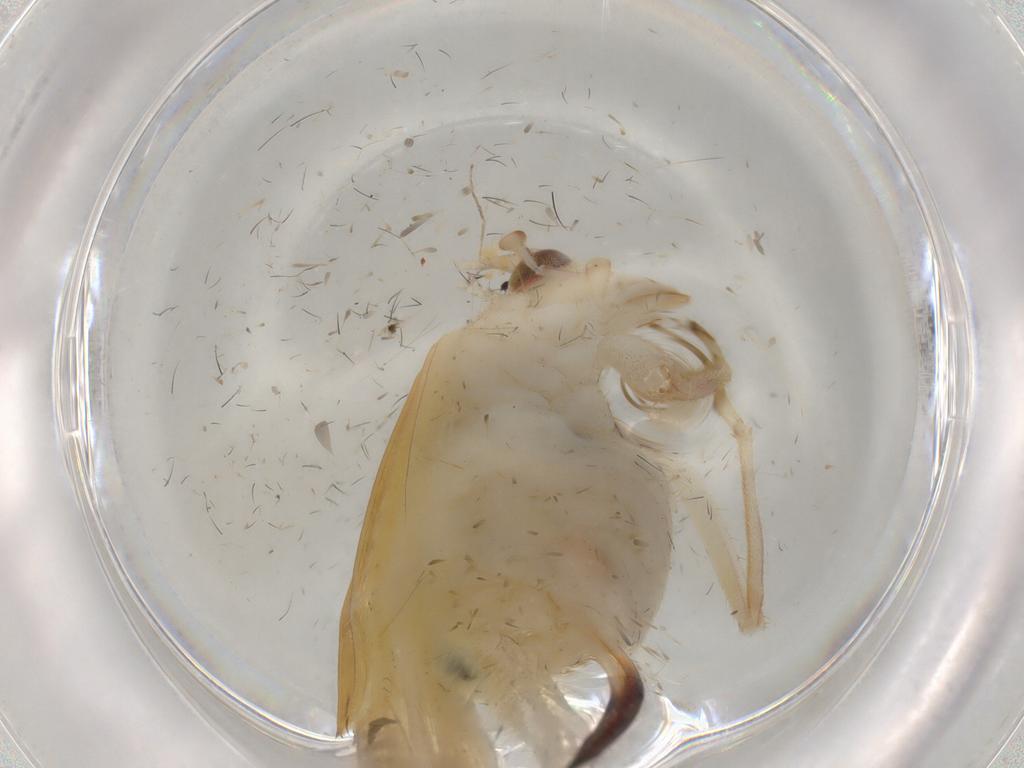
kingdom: Animalia
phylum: Arthropoda
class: Insecta
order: Orthoptera
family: Trigonidiidae
